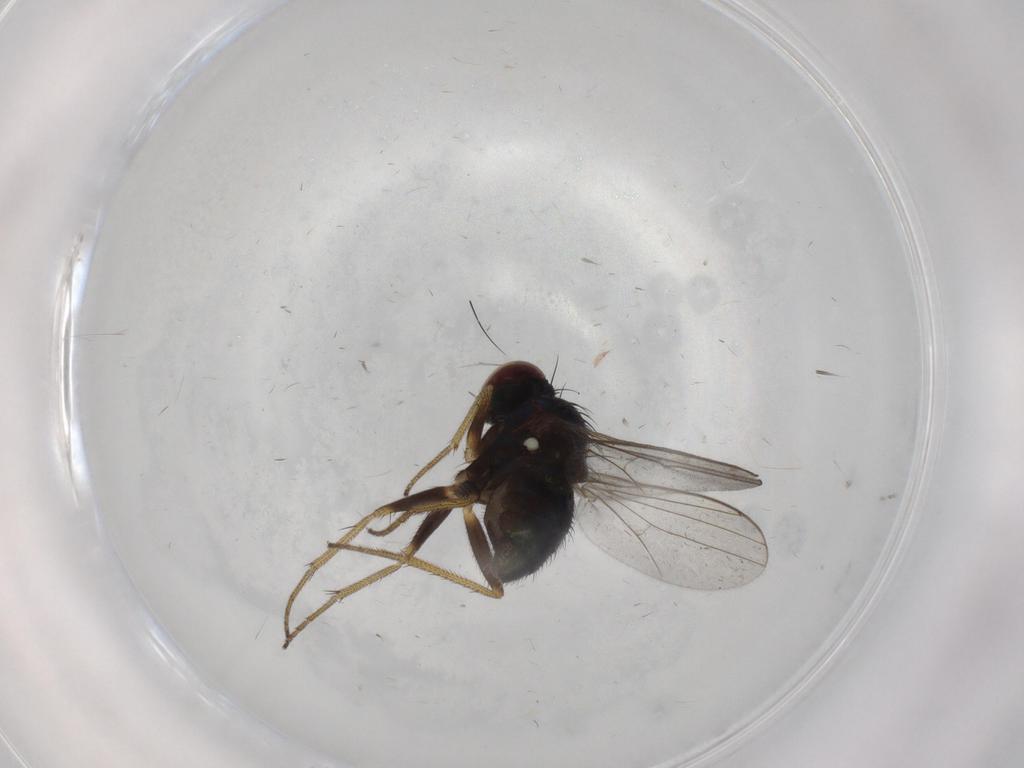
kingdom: Animalia
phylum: Arthropoda
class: Insecta
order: Diptera
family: Dolichopodidae
